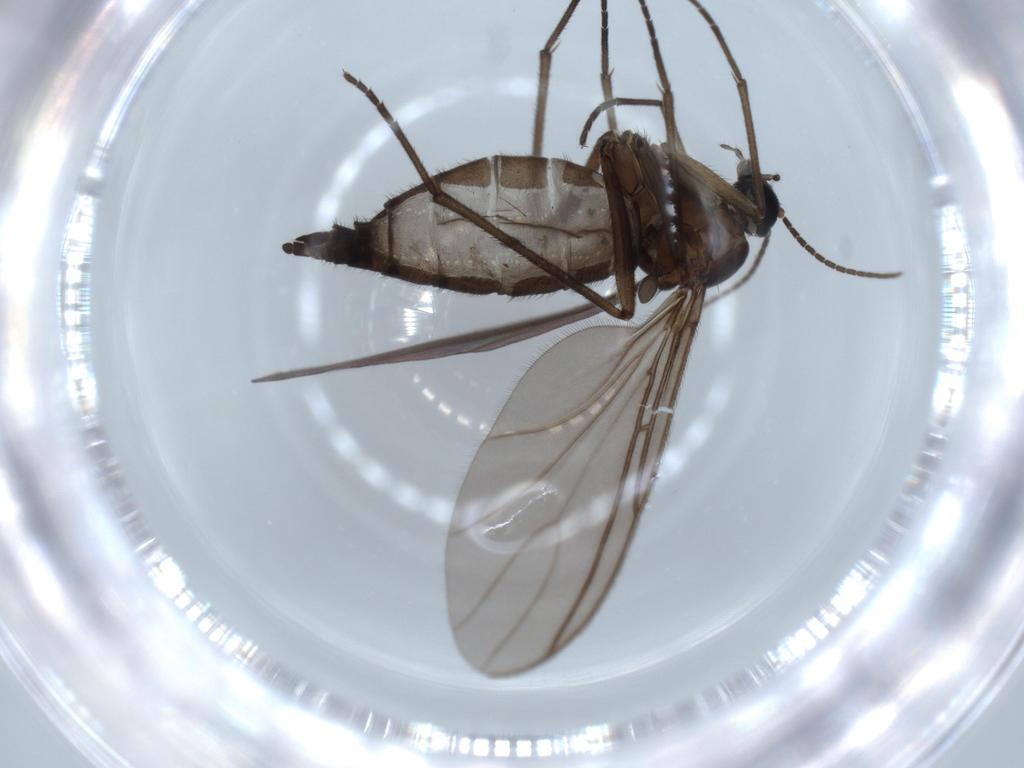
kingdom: Animalia
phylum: Arthropoda
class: Insecta
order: Diptera
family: Sciaridae
